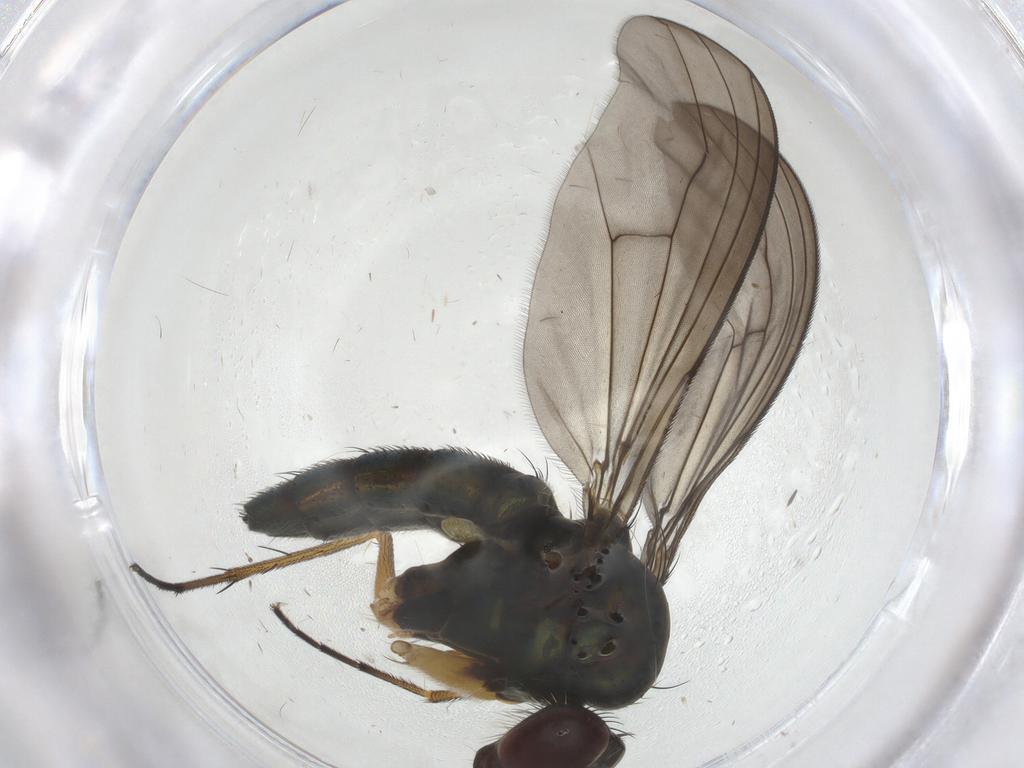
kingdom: Animalia
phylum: Arthropoda
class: Insecta
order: Diptera
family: Dolichopodidae
